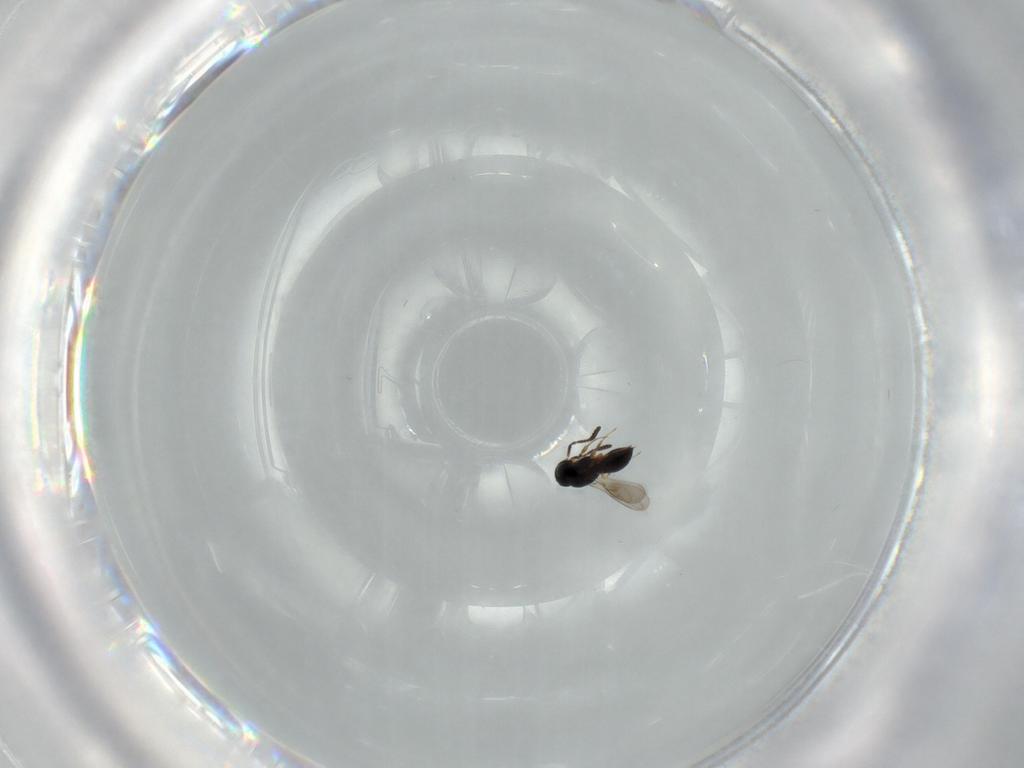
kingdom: Animalia
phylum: Arthropoda
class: Insecta
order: Hymenoptera
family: Scelionidae
